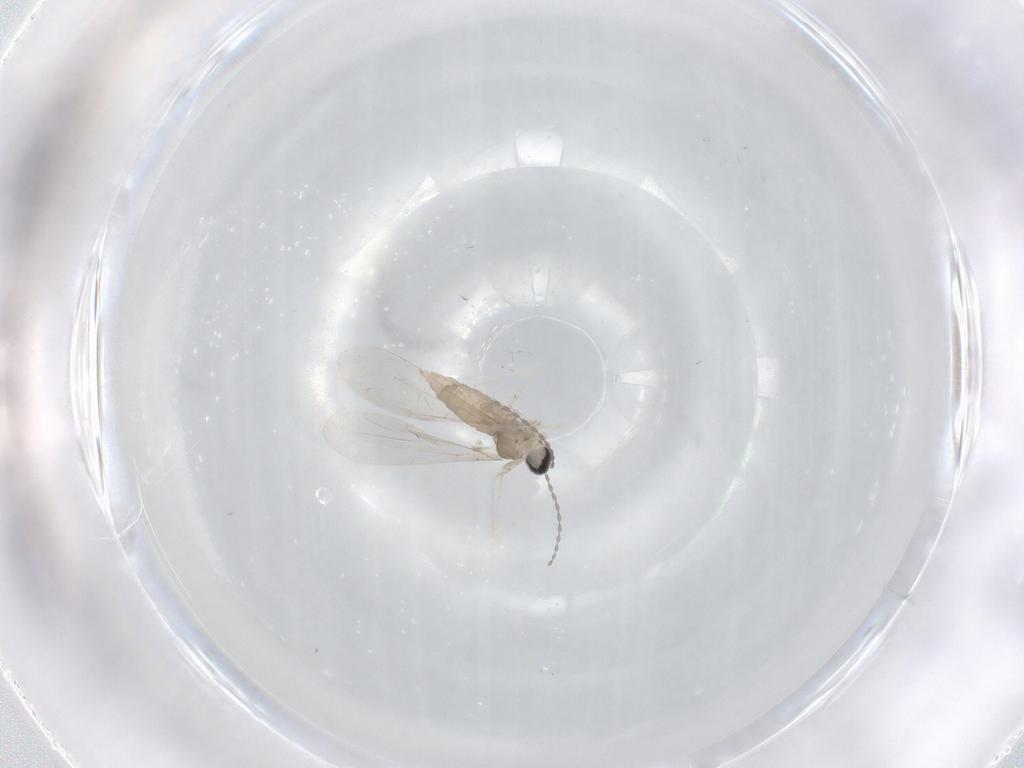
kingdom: Animalia
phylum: Arthropoda
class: Insecta
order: Diptera
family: Cecidomyiidae
